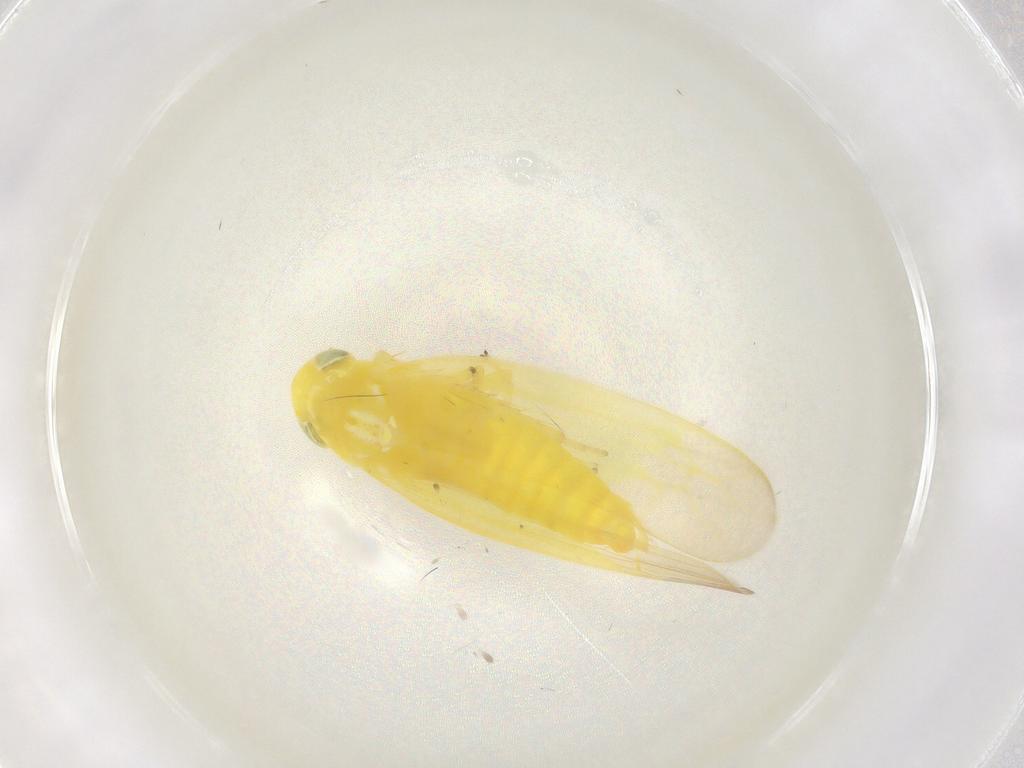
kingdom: Animalia
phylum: Arthropoda
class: Insecta
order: Hemiptera
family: Cicadellidae
